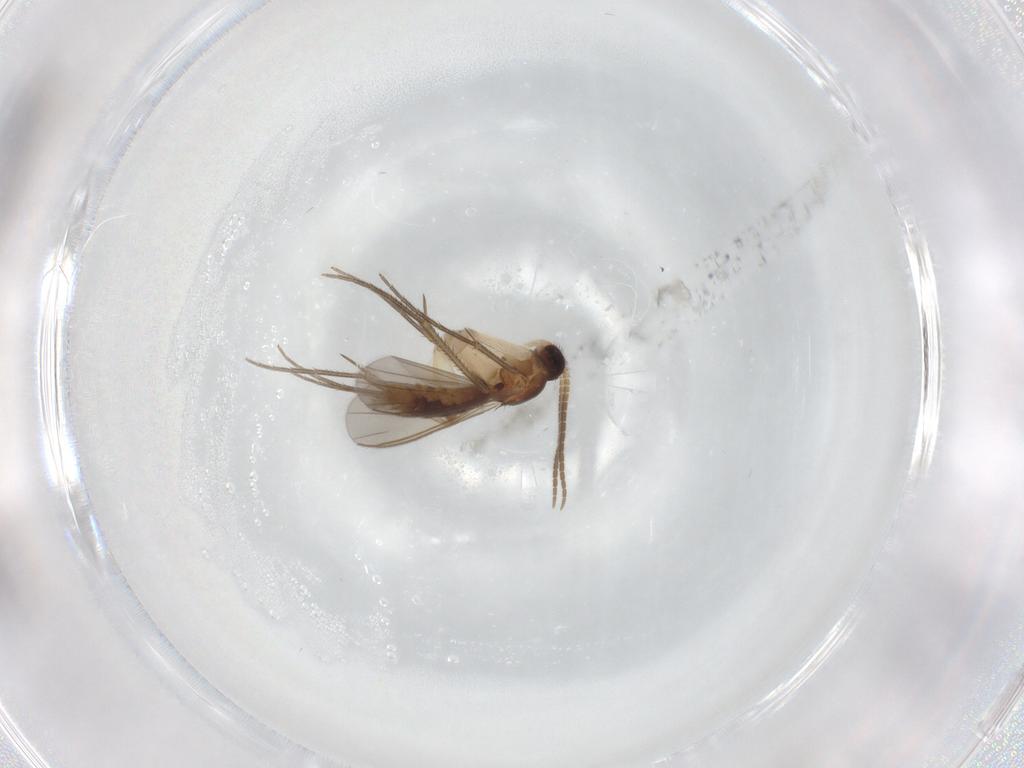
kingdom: Animalia
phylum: Arthropoda
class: Insecta
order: Diptera
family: Mycetophilidae
